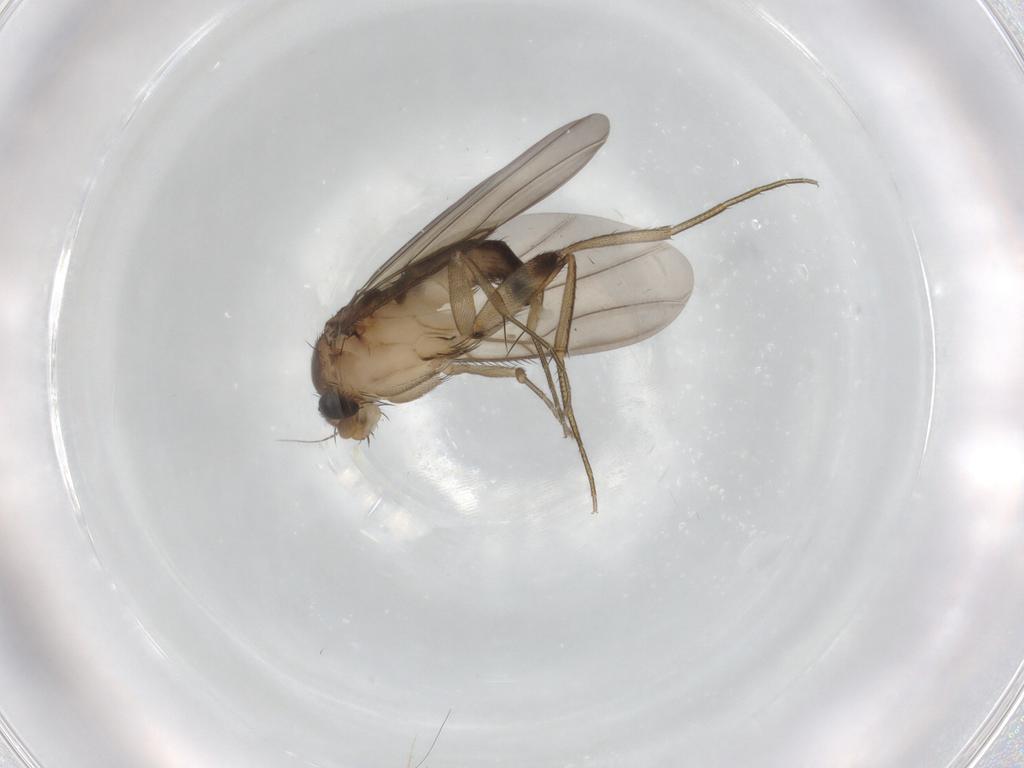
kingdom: Animalia
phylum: Arthropoda
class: Insecta
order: Diptera
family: Phoridae
